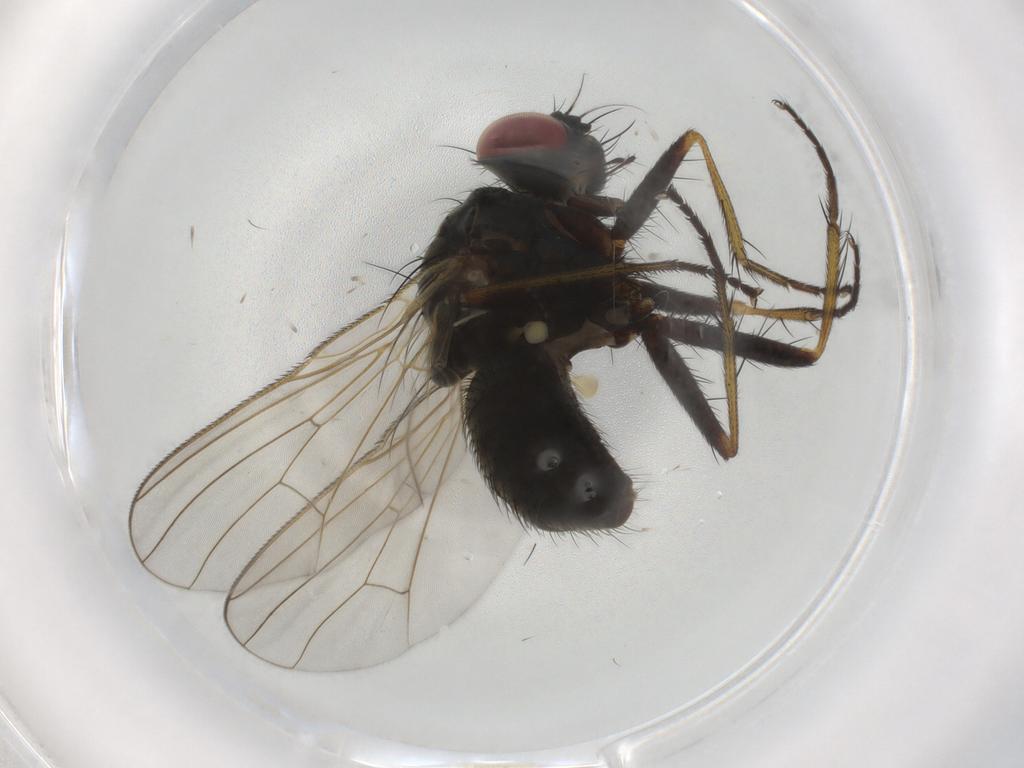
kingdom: Animalia
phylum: Arthropoda
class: Insecta
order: Diptera
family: Muscidae
